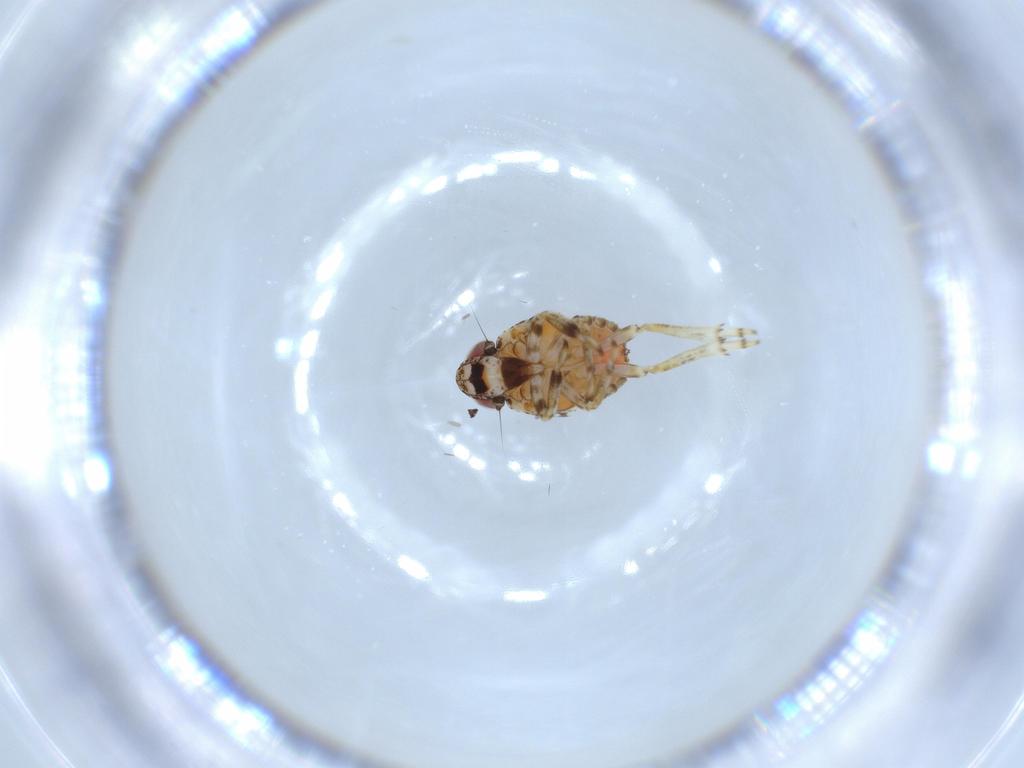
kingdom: Animalia
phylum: Arthropoda
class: Insecta
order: Hemiptera
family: Issidae
